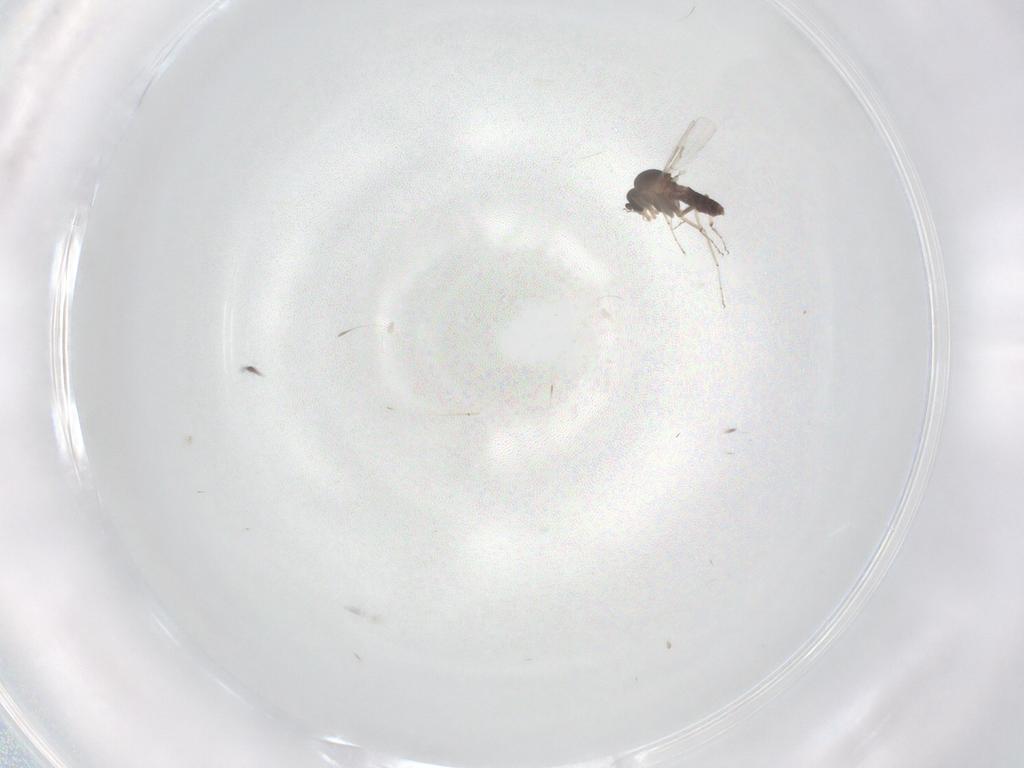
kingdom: Animalia
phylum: Arthropoda
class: Insecta
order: Diptera
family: Ceratopogonidae
